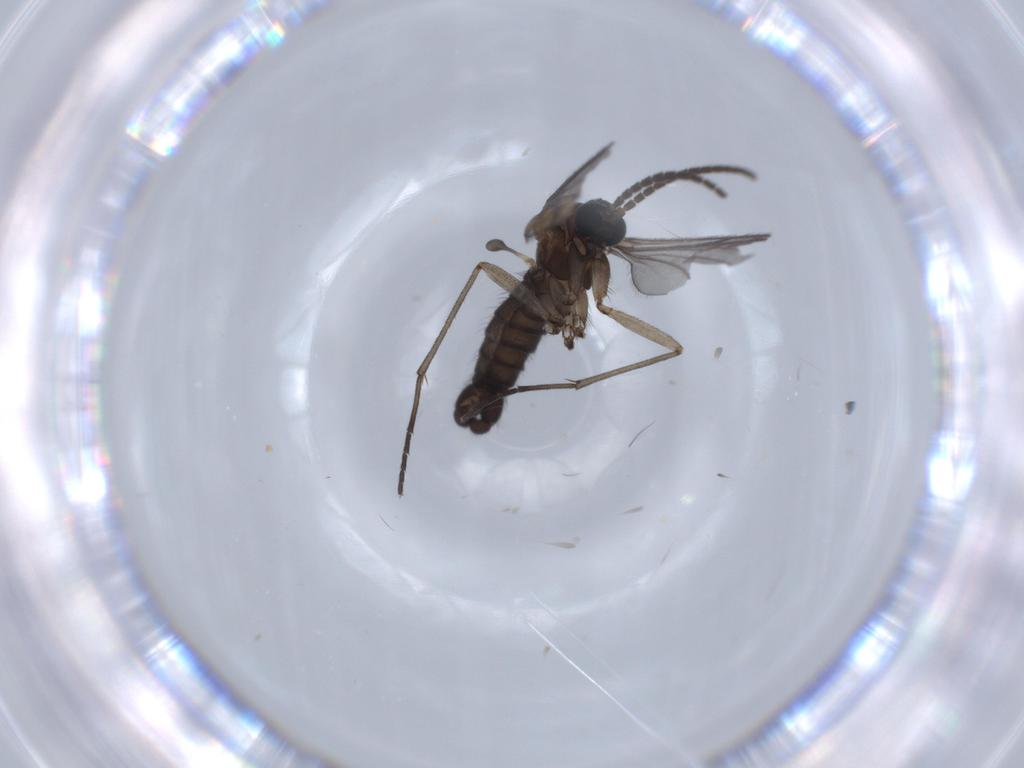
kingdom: Animalia
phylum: Arthropoda
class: Insecta
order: Diptera
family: Sciaridae
